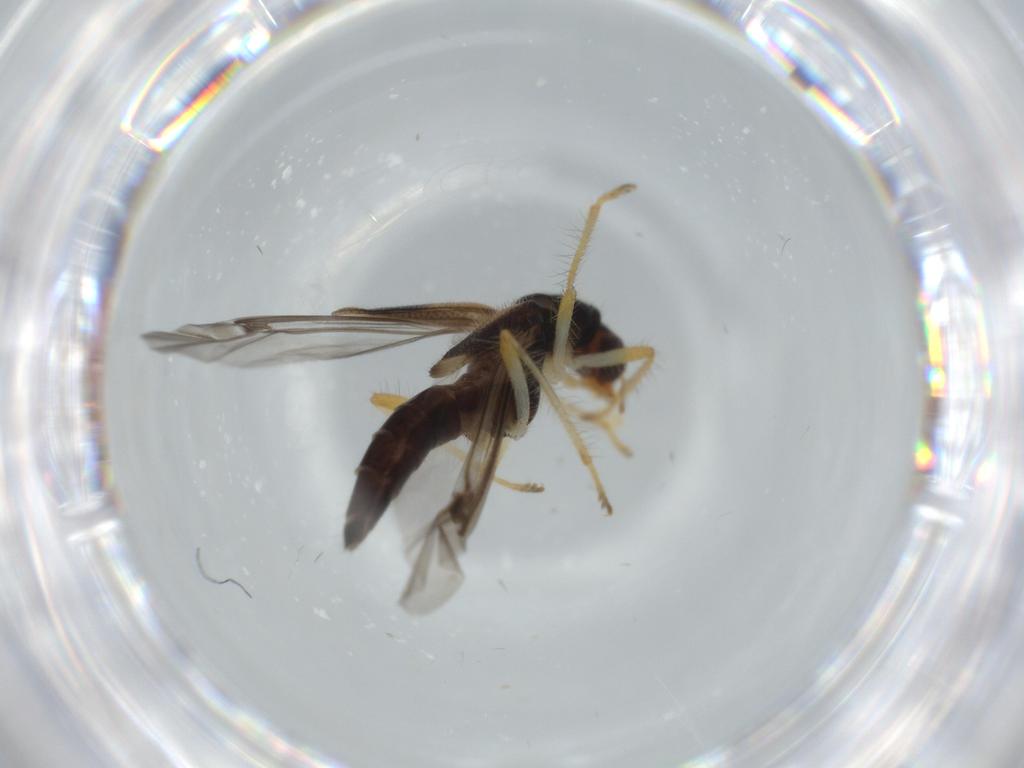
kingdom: Animalia
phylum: Arthropoda
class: Insecta
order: Coleoptera
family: Cleridae
